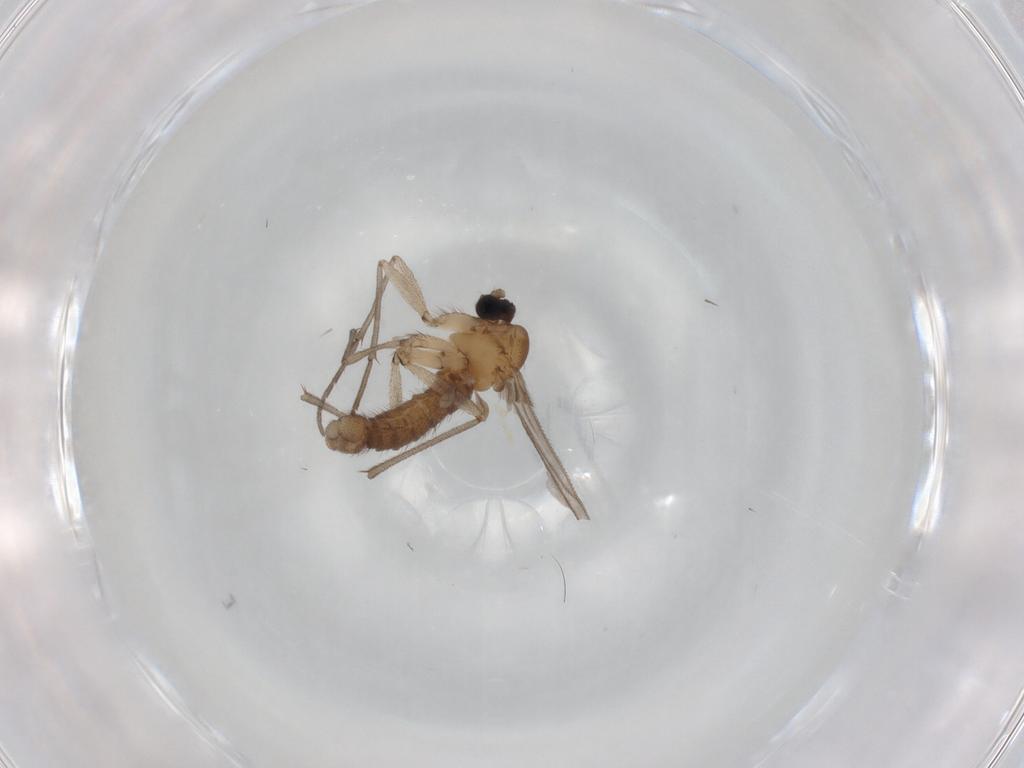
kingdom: Animalia
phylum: Arthropoda
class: Insecta
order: Diptera
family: Sciaridae
